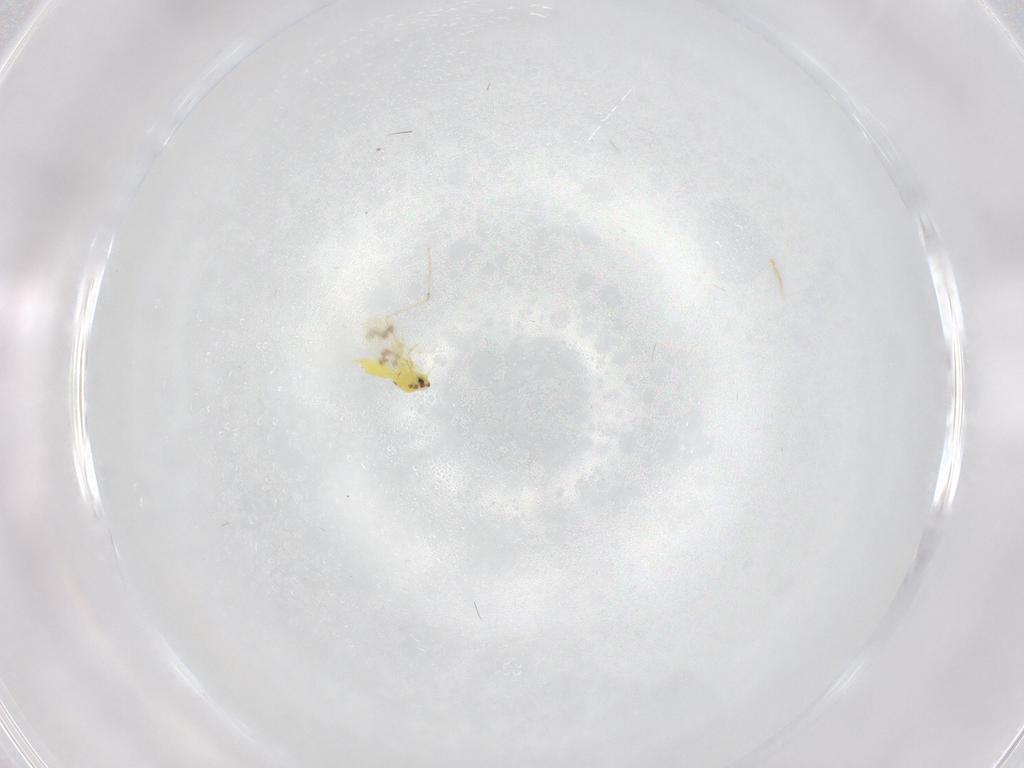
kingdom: Animalia
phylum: Arthropoda
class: Insecta
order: Hemiptera
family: Aleyrodidae
